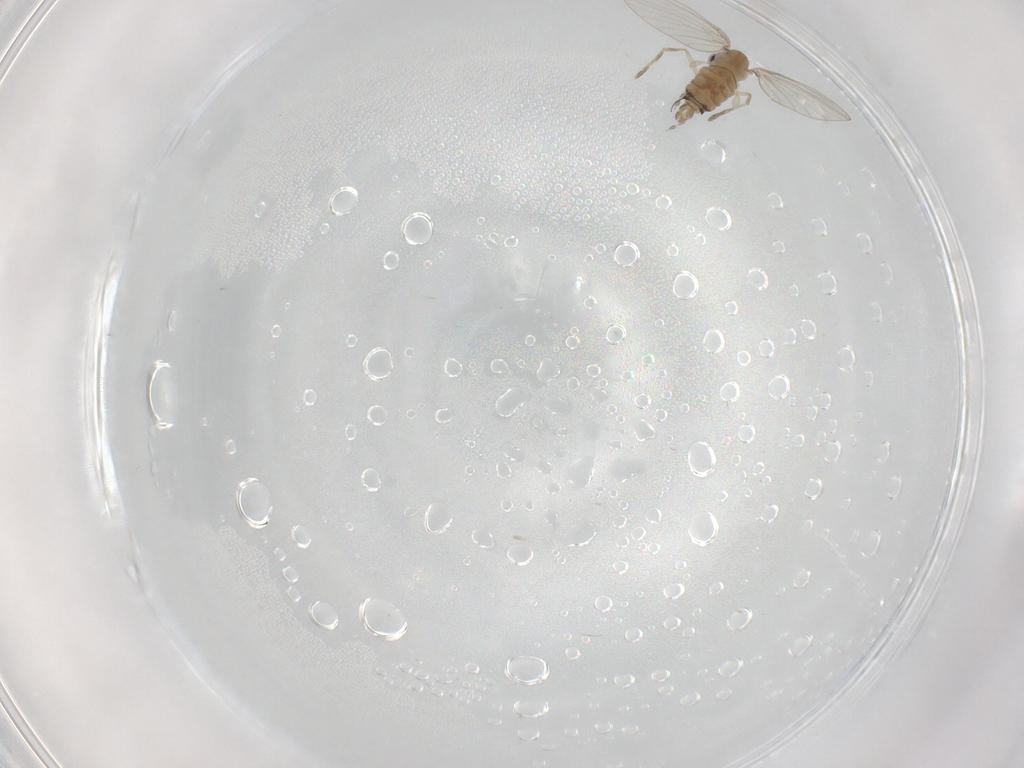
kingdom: Animalia
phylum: Arthropoda
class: Insecta
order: Diptera
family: Psychodidae
